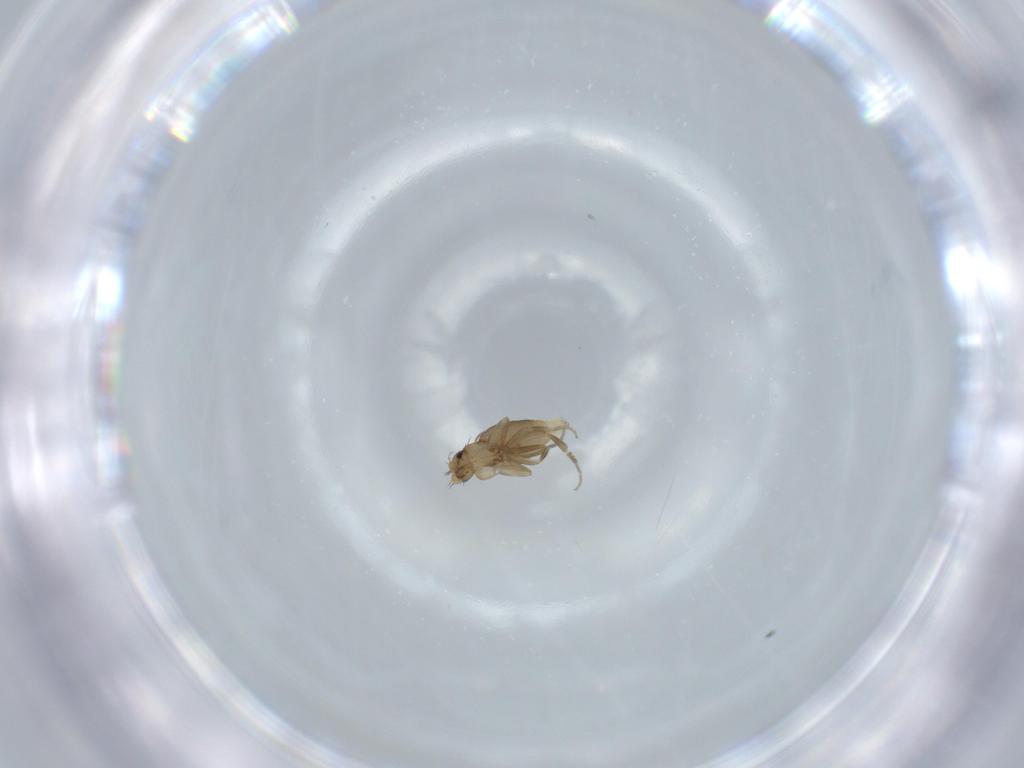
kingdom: Animalia
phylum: Arthropoda
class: Insecta
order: Diptera
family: Phoridae
